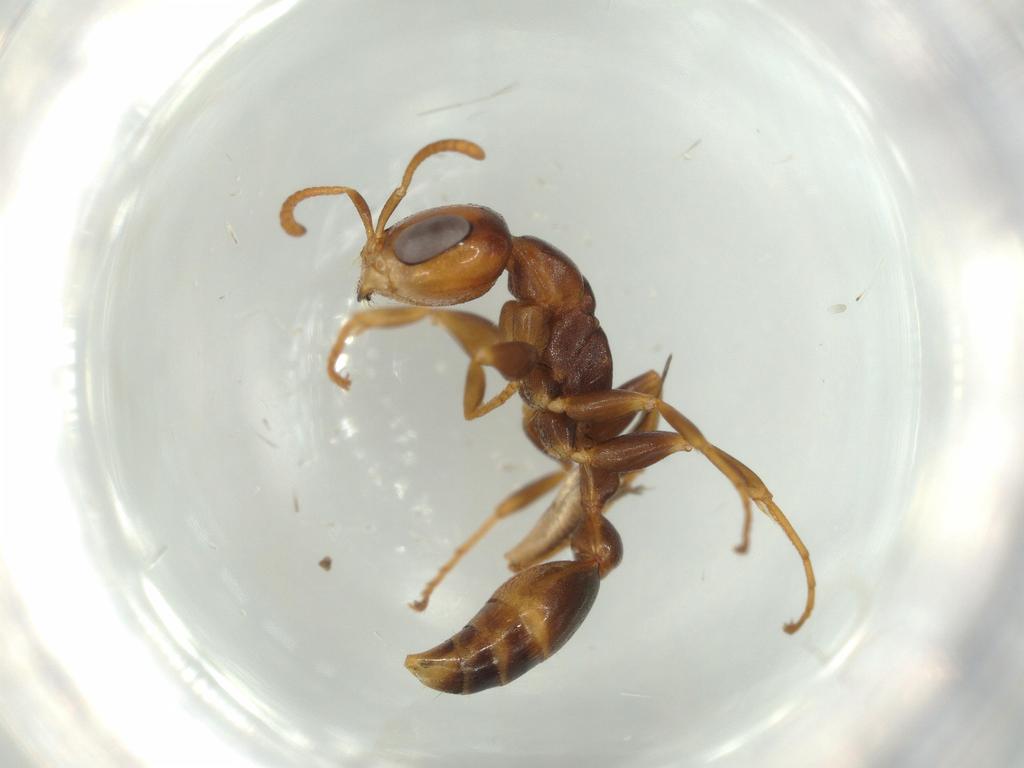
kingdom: Animalia
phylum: Arthropoda
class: Insecta
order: Hymenoptera
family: Formicidae
